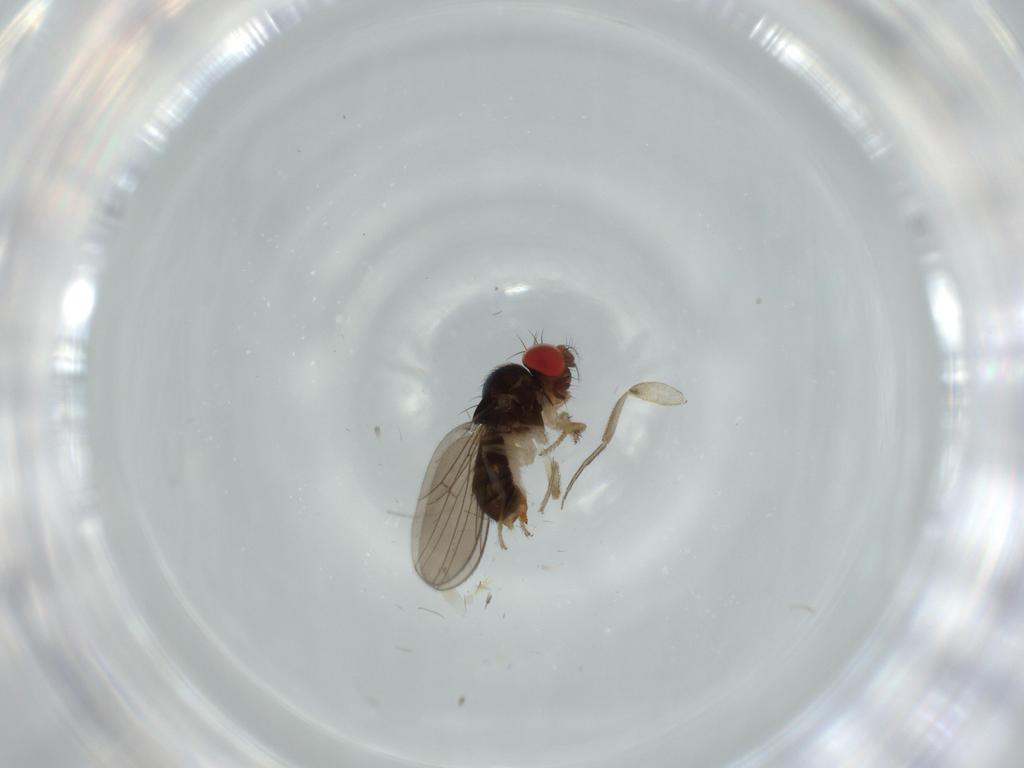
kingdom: Animalia
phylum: Arthropoda
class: Insecta
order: Diptera
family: Drosophilidae
